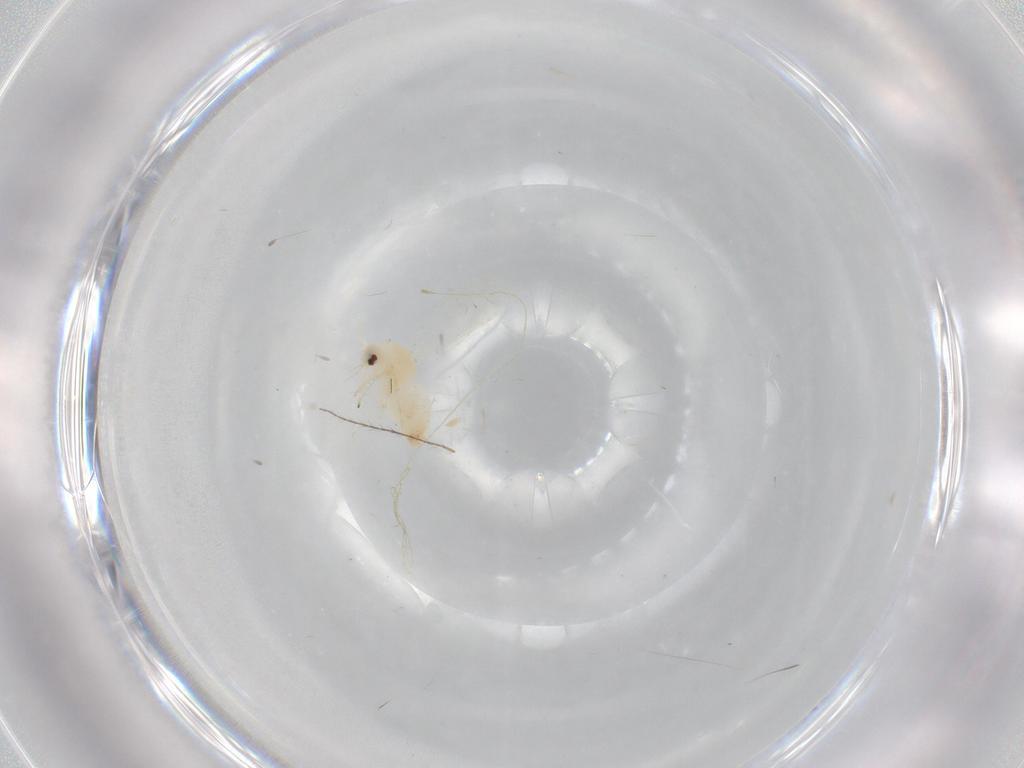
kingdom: Animalia
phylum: Arthropoda
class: Insecta
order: Hemiptera
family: Aleyrodidae
